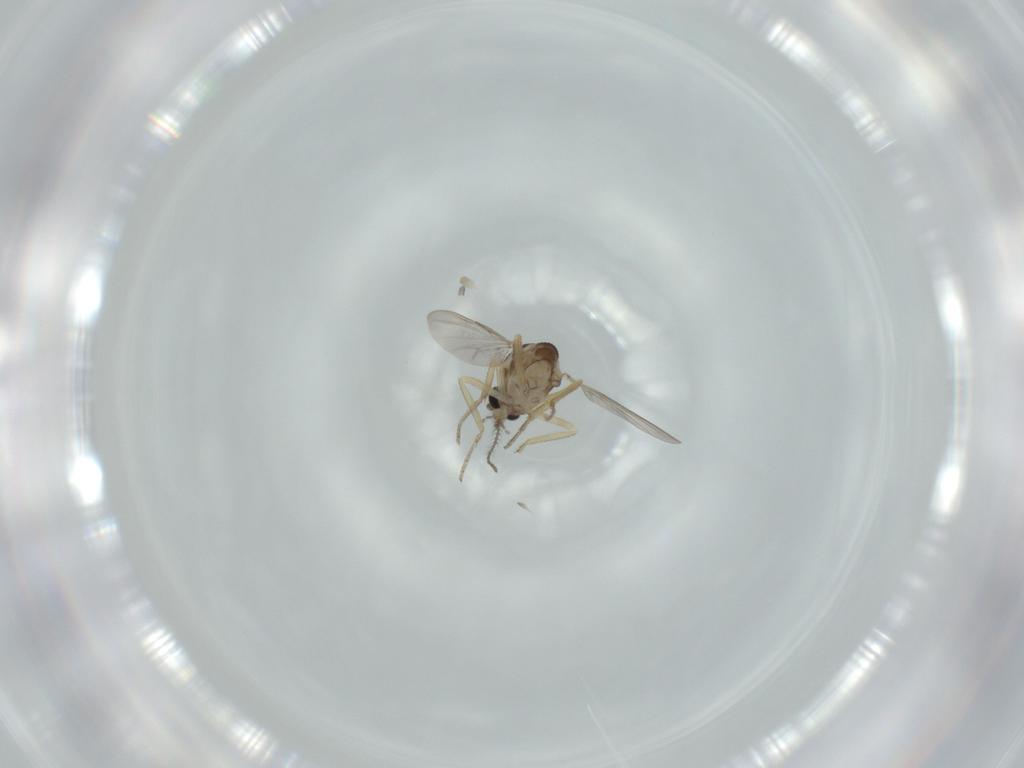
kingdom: Animalia
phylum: Arthropoda
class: Insecta
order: Diptera
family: Ceratopogonidae
